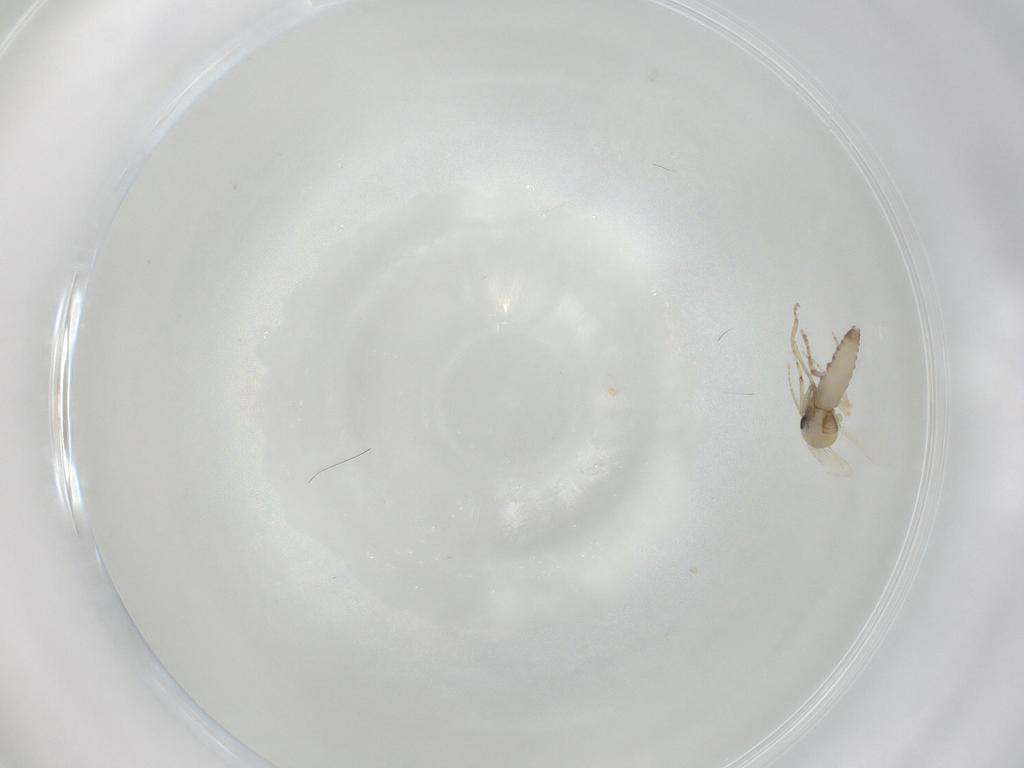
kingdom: Animalia
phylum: Arthropoda
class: Insecta
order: Diptera
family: Ceratopogonidae
